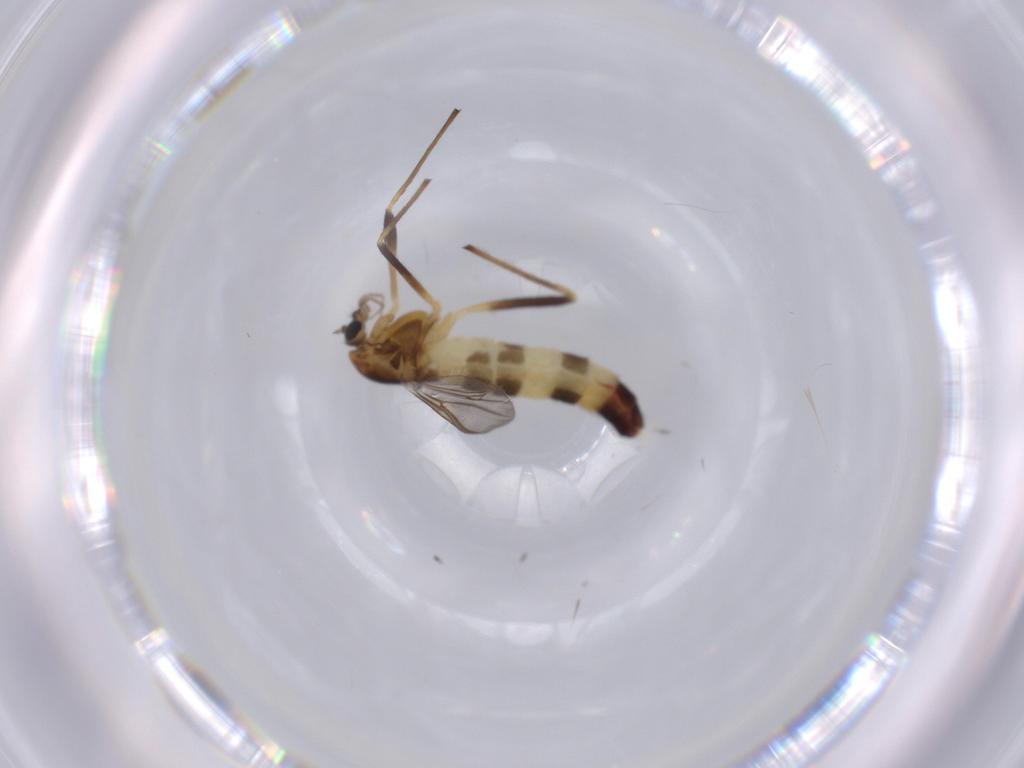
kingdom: Animalia
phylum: Arthropoda
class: Insecta
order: Diptera
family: Chironomidae
